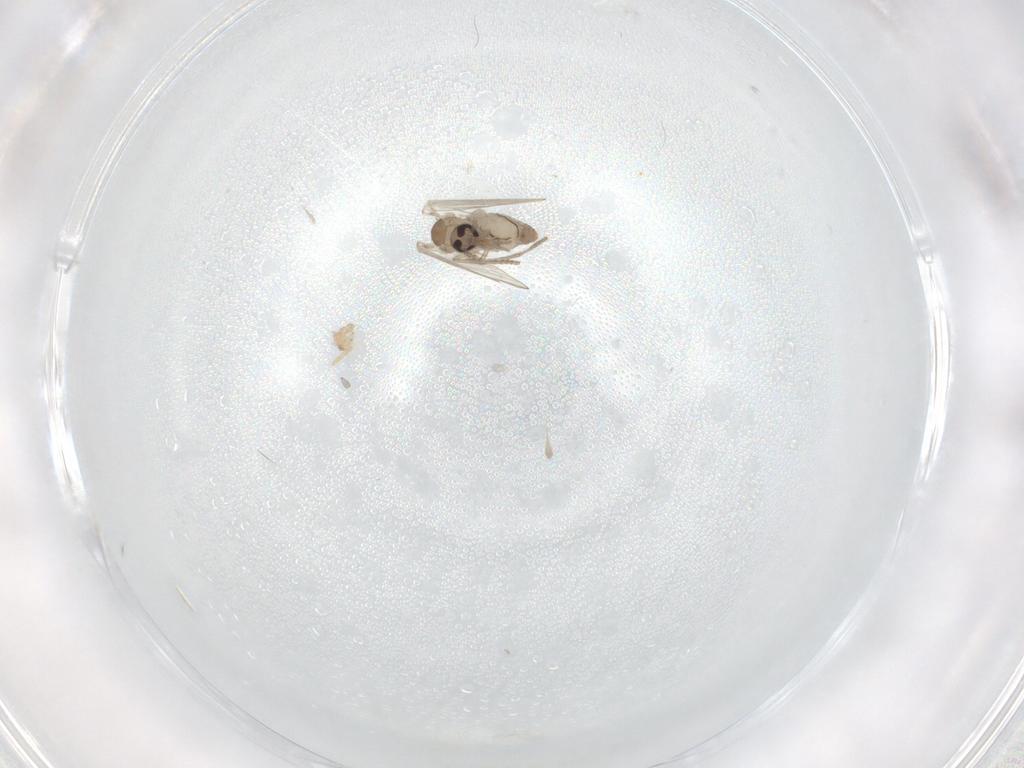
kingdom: Animalia
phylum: Arthropoda
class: Insecta
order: Diptera
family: Psychodidae
